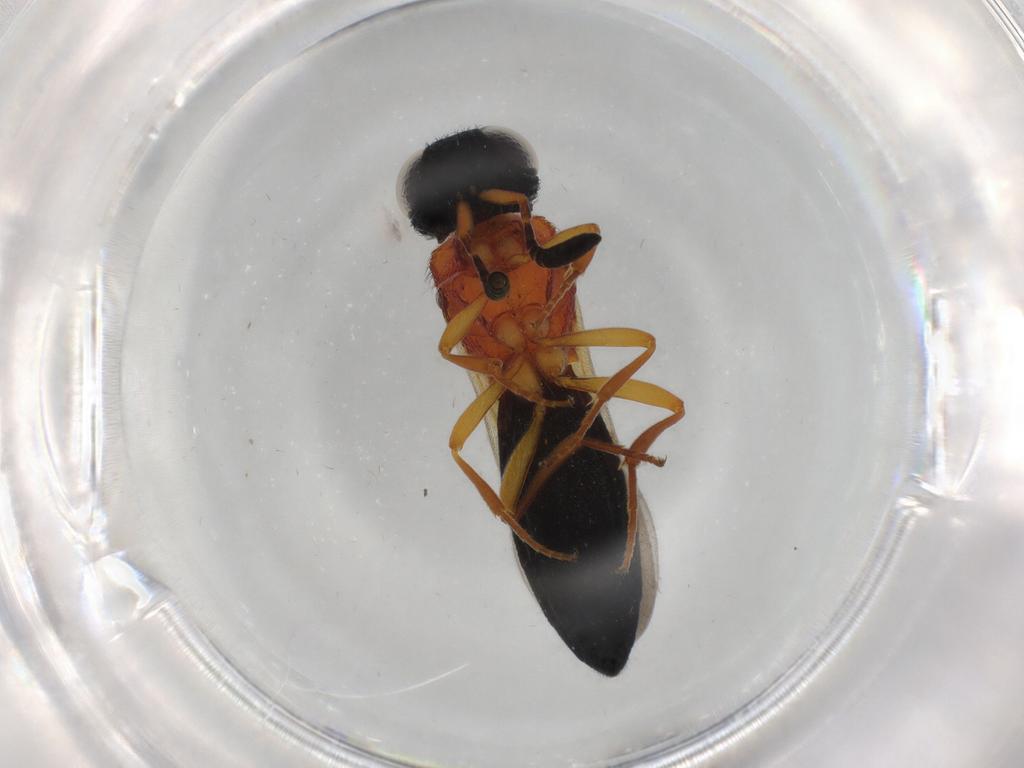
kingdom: Animalia
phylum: Arthropoda
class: Insecta
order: Hymenoptera
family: Scelionidae
